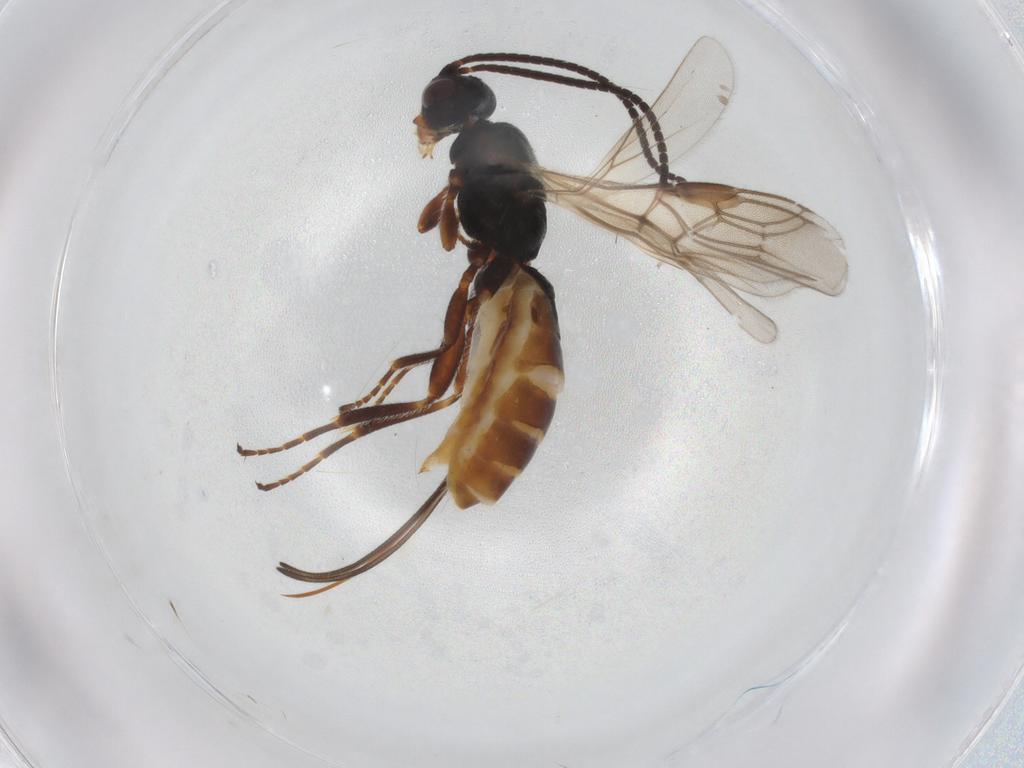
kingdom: Animalia
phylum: Arthropoda
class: Insecta
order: Hymenoptera
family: Braconidae
